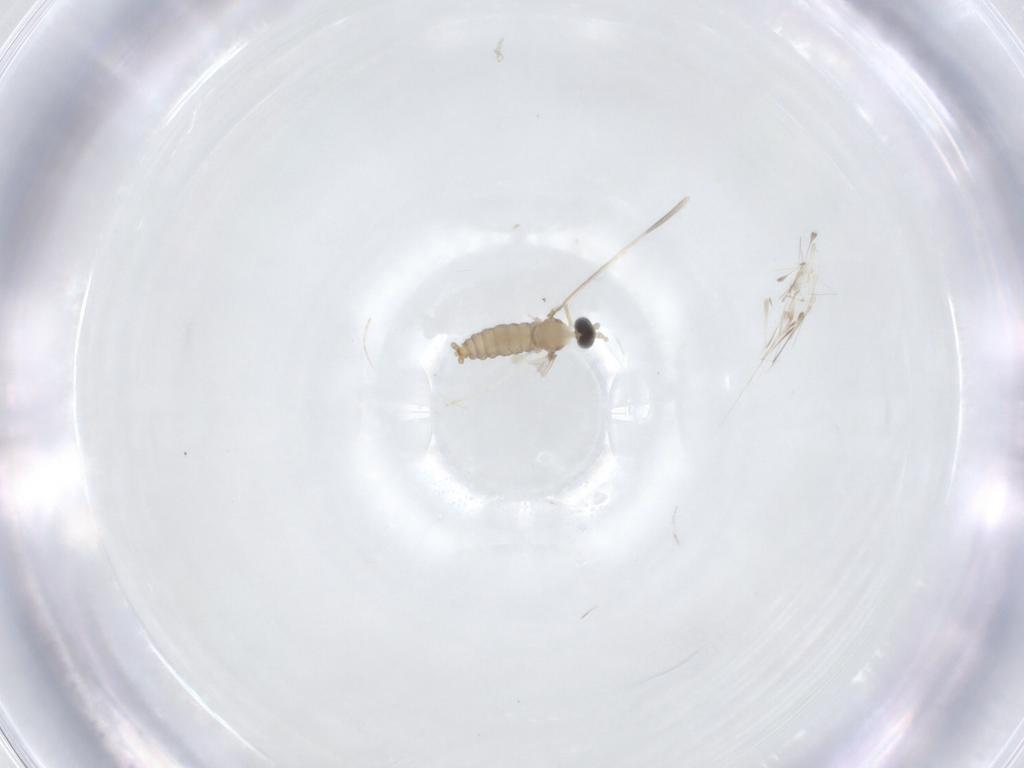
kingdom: Animalia
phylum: Arthropoda
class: Insecta
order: Diptera
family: Cecidomyiidae
